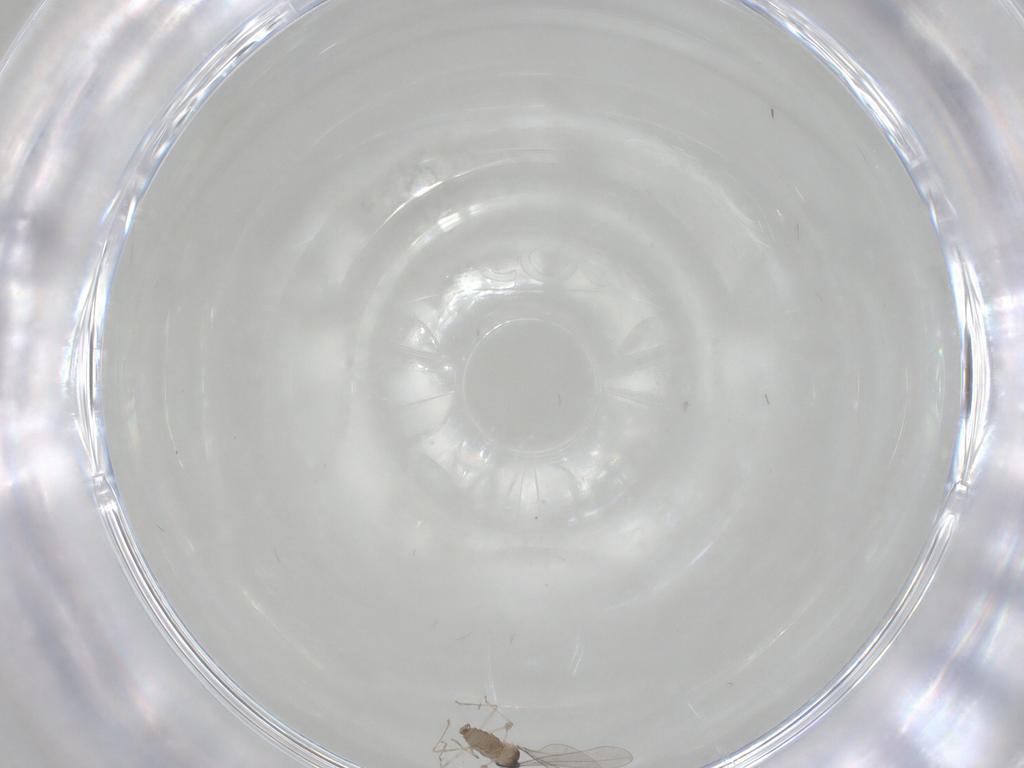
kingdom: Animalia
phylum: Arthropoda
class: Insecta
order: Diptera
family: Cecidomyiidae
